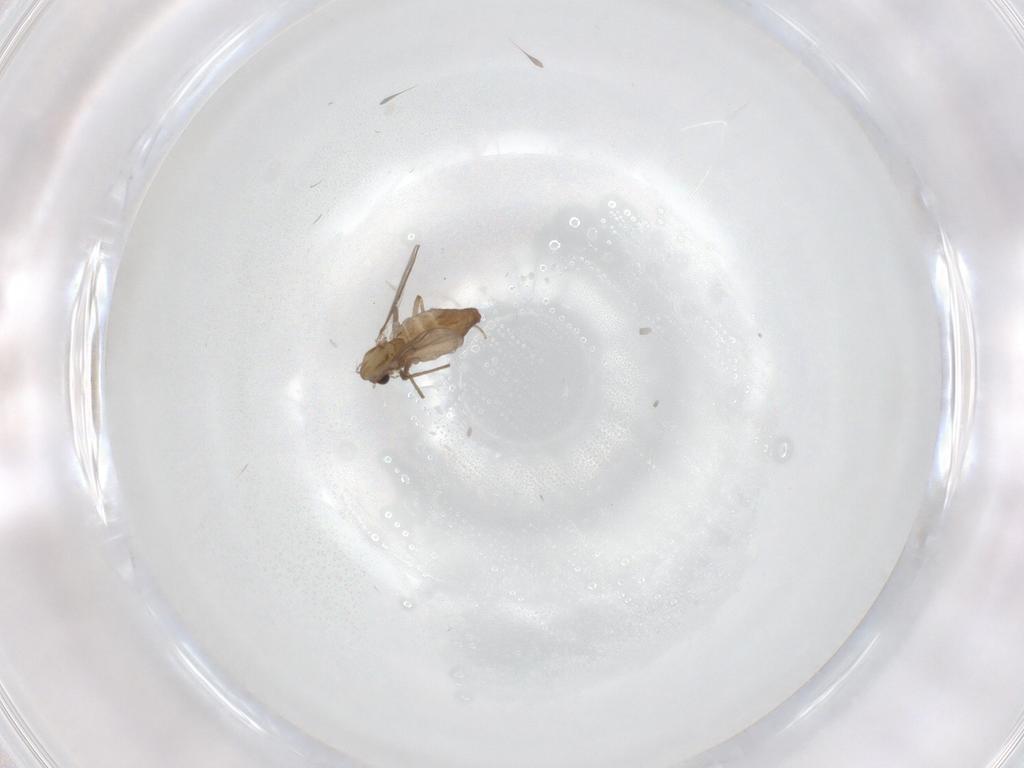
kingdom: Animalia
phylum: Arthropoda
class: Insecta
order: Diptera
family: Chironomidae
